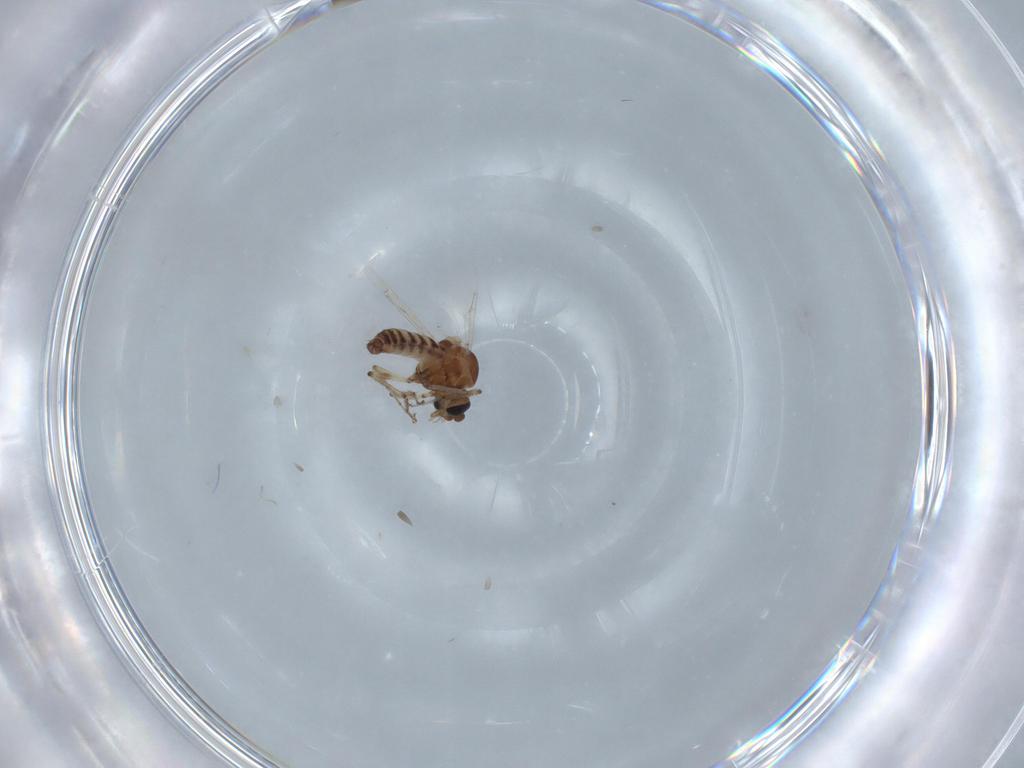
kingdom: Animalia
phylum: Arthropoda
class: Insecta
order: Diptera
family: Ceratopogonidae
